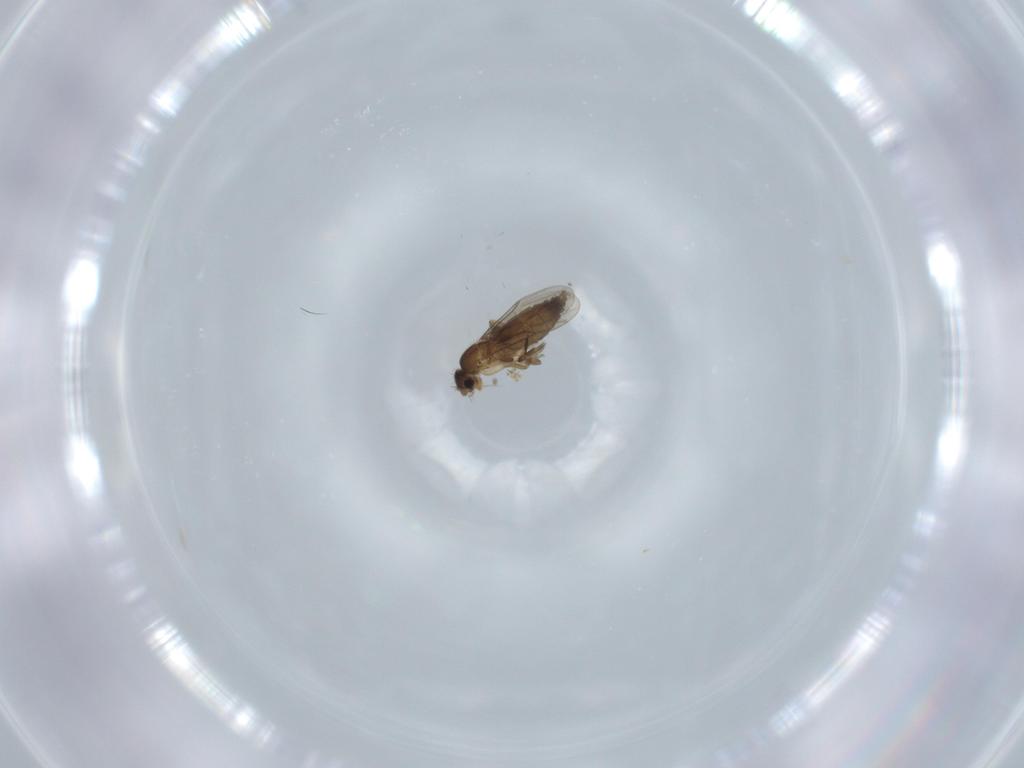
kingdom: Animalia
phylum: Arthropoda
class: Insecta
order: Diptera
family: Phoridae
